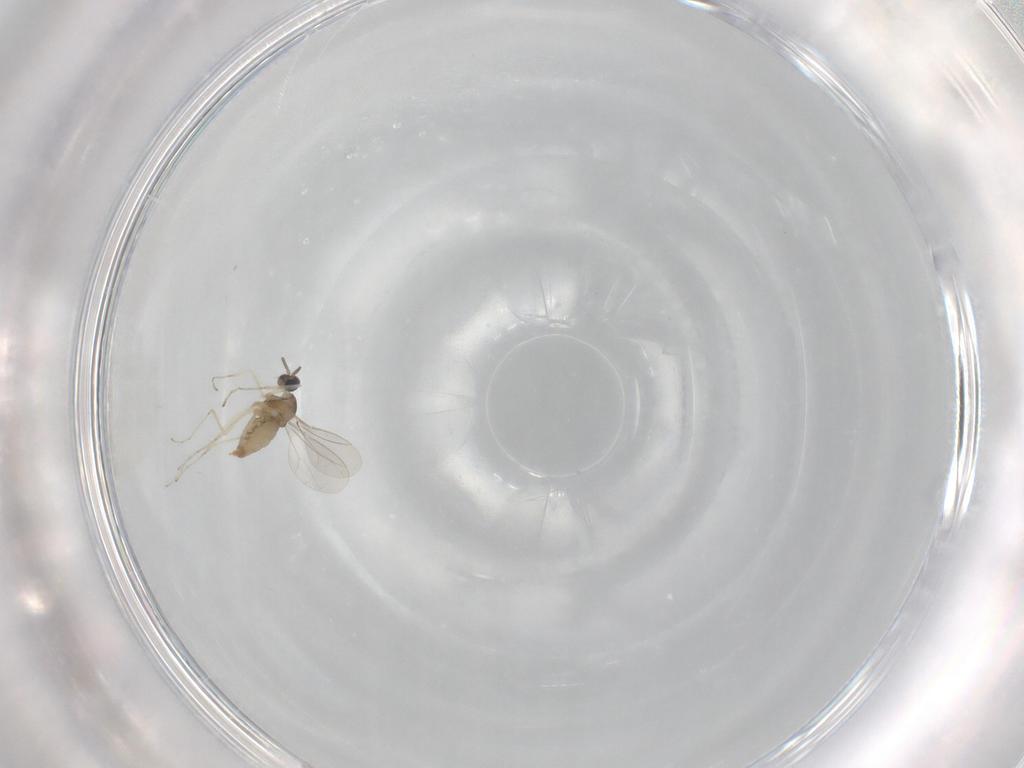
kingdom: Animalia
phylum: Arthropoda
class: Insecta
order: Diptera
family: Cecidomyiidae
